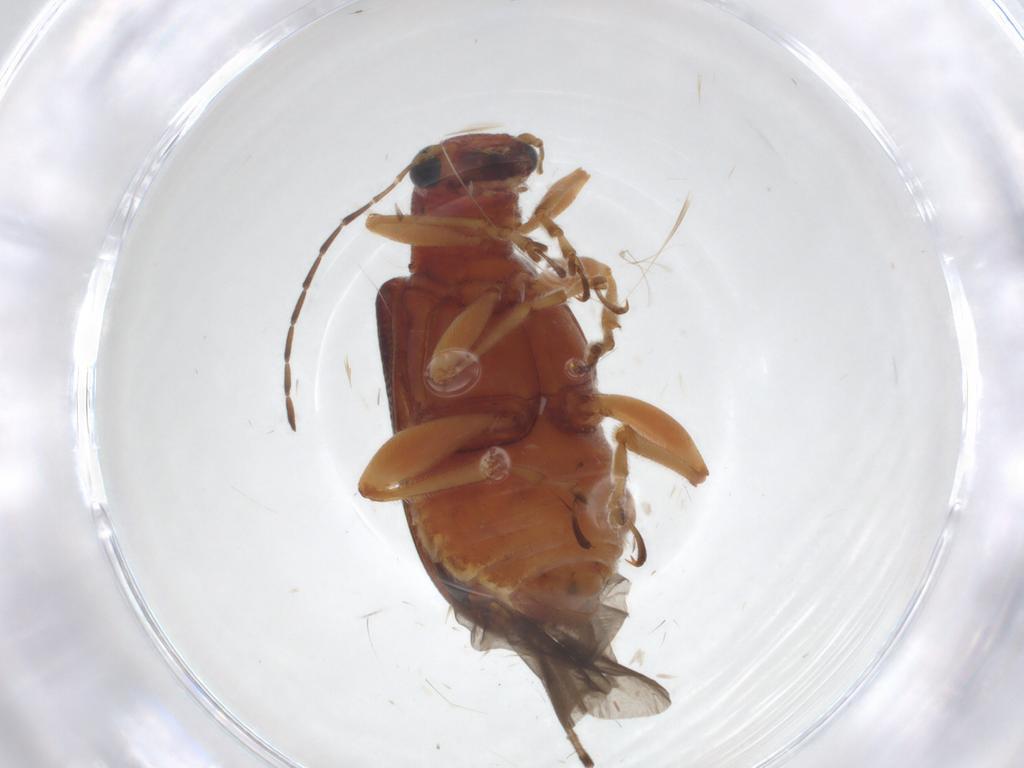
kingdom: Animalia
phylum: Arthropoda
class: Insecta
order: Coleoptera
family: Chrysomelidae
